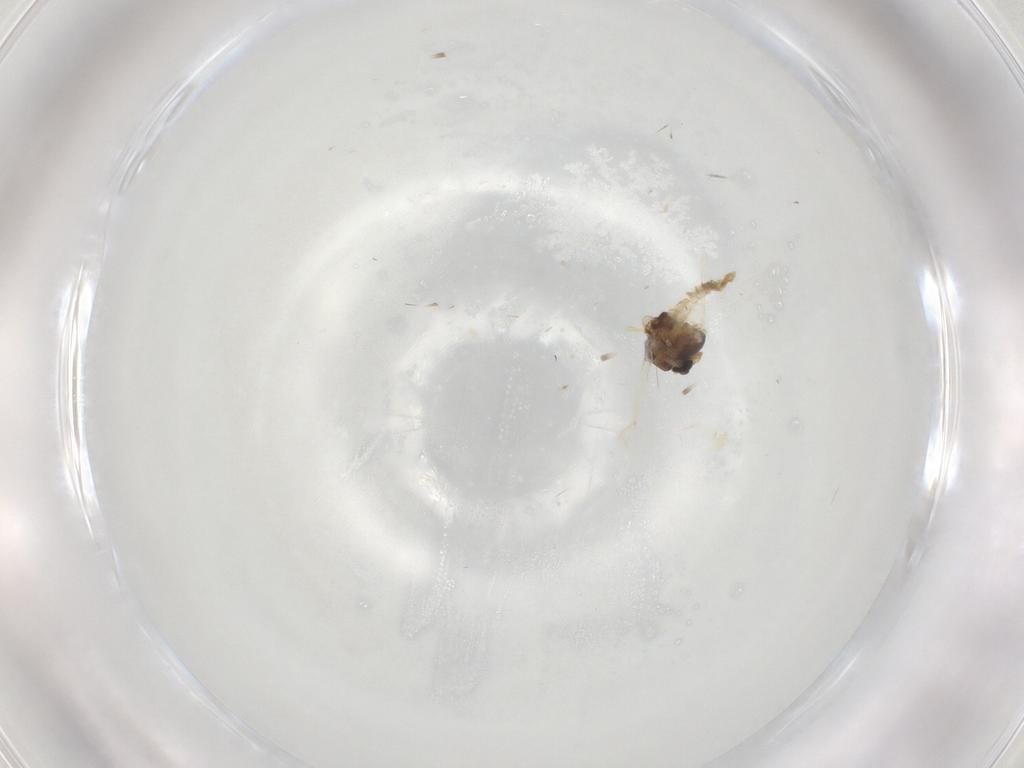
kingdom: Animalia
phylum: Arthropoda
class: Insecta
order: Diptera
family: Chironomidae
